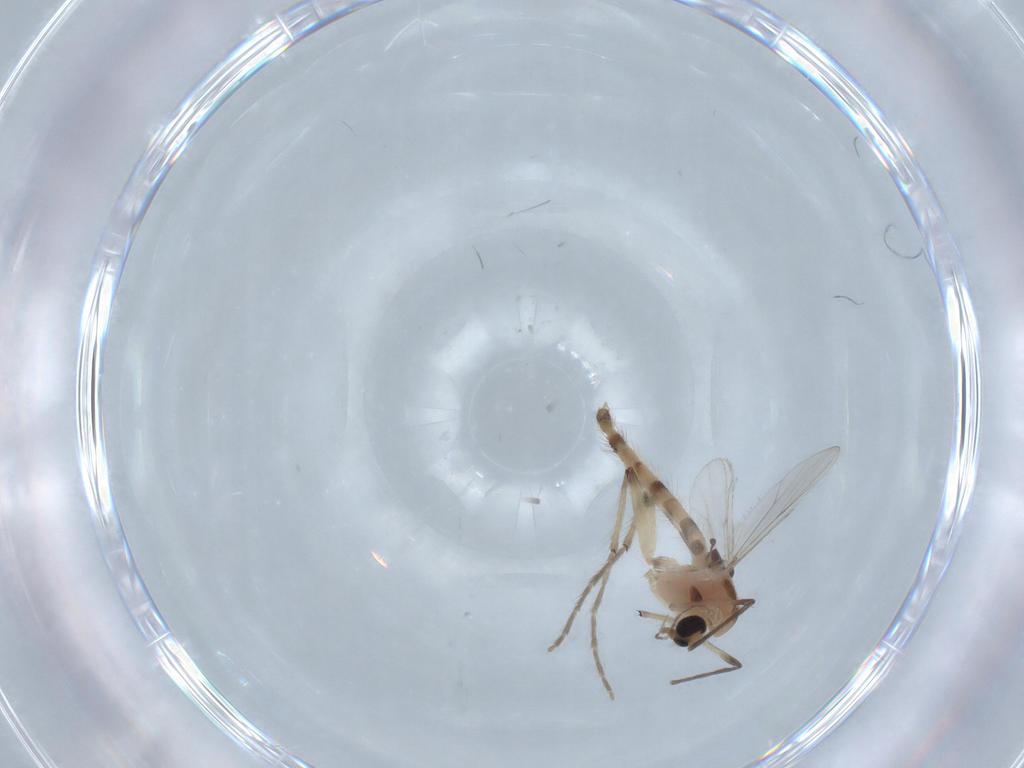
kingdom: Animalia
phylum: Arthropoda
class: Insecta
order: Diptera
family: Chironomidae
